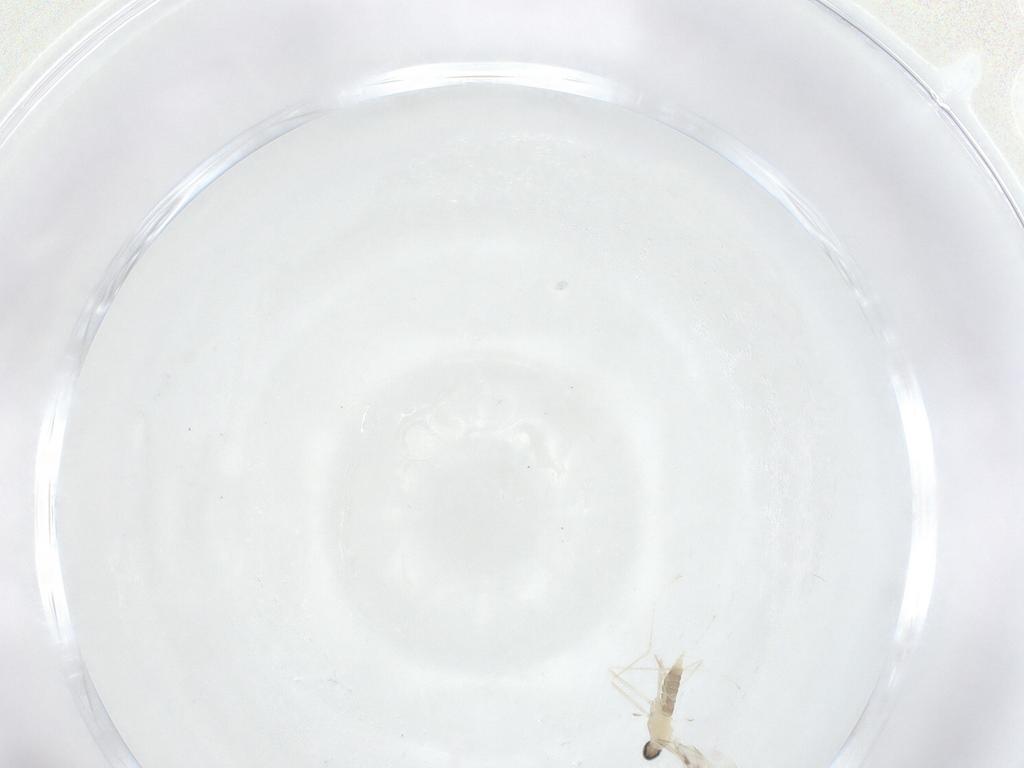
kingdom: Animalia
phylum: Arthropoda
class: Insecta
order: Diptera
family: Cecidomyiidae
